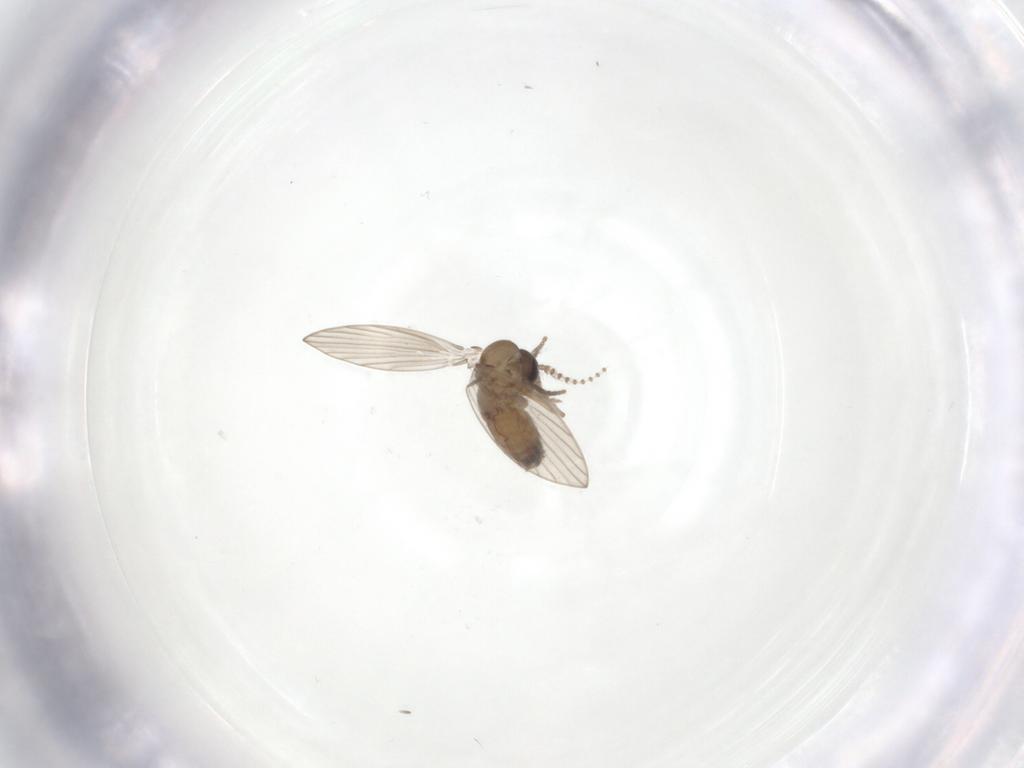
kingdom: Animalia
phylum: Arthropoda
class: Insecta
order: Diptera
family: Psychodidae
